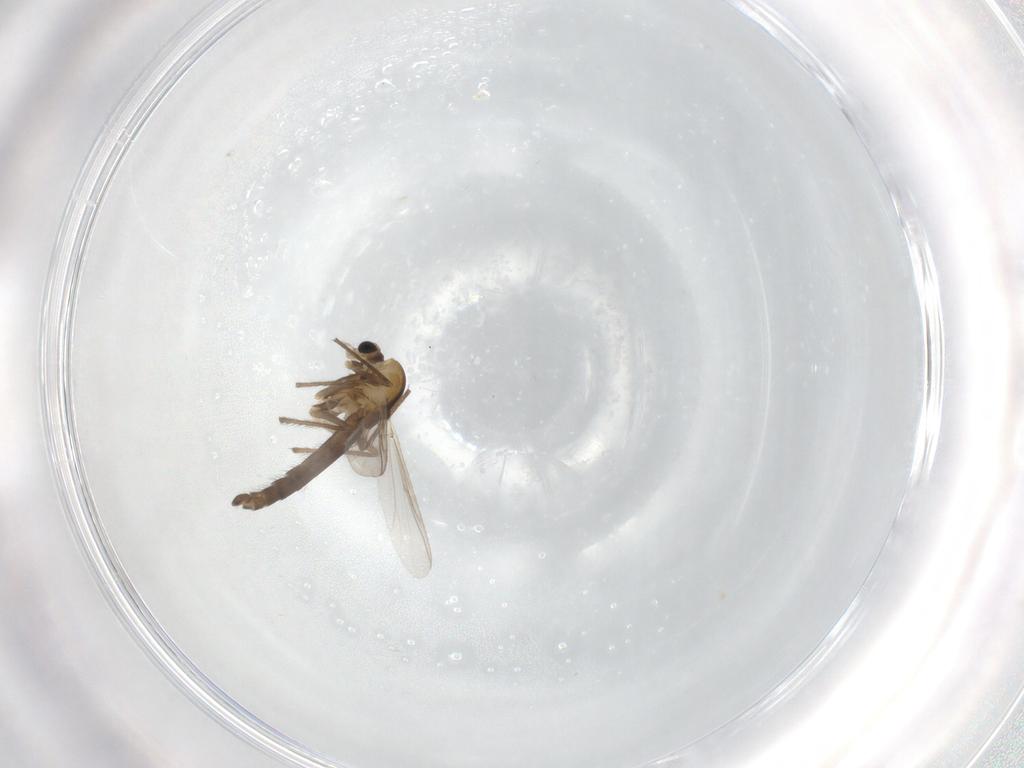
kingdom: Animalia
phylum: Arthropoda
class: Insecta
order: Diptera
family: Chironomidae
